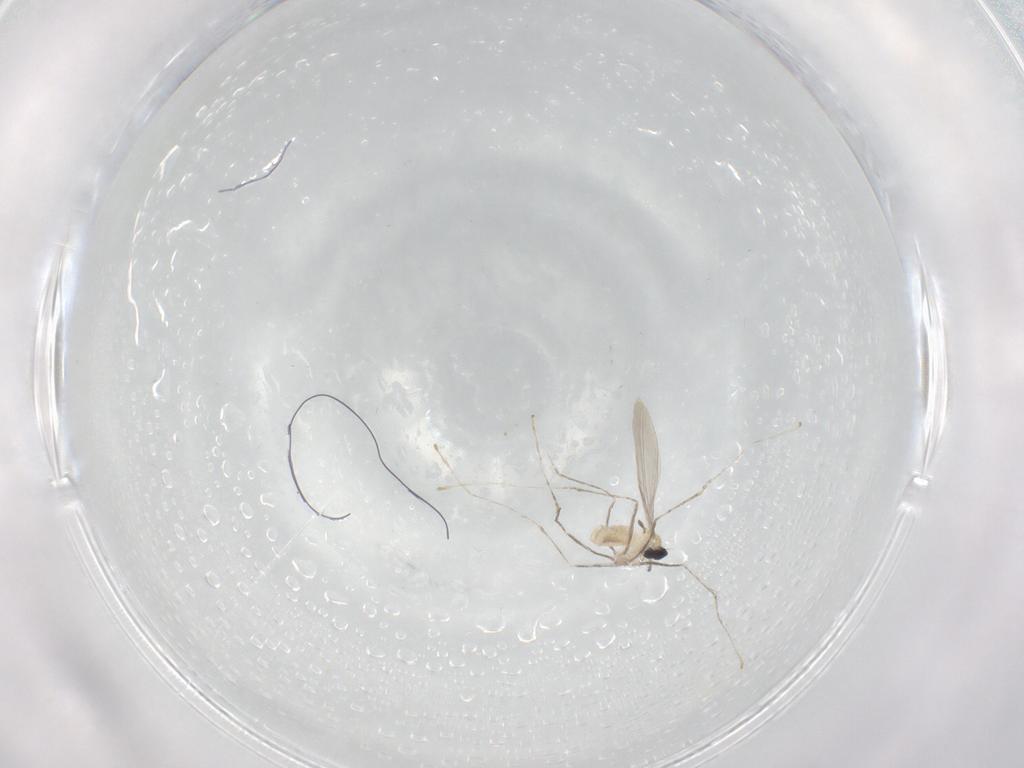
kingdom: Animalia
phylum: Arthropoda
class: Insecta
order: Diptera
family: Cecidomyiidae
